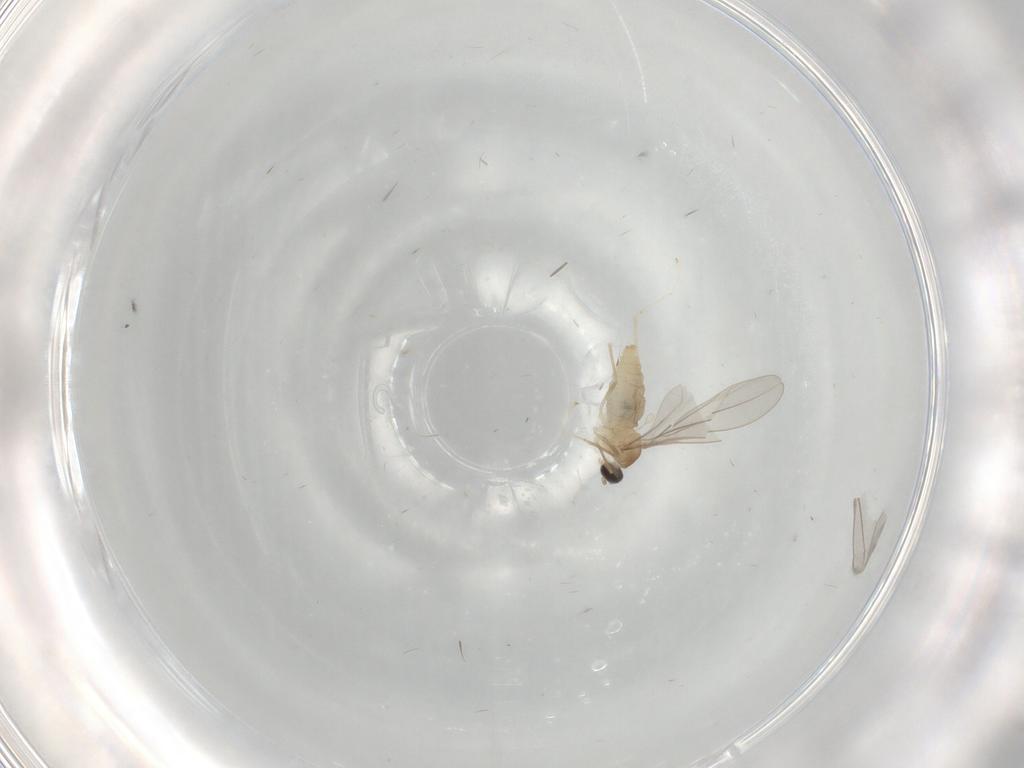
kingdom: Animalia
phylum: Arthropoda
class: Insecta
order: Diptera
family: Cecidomyiidae
